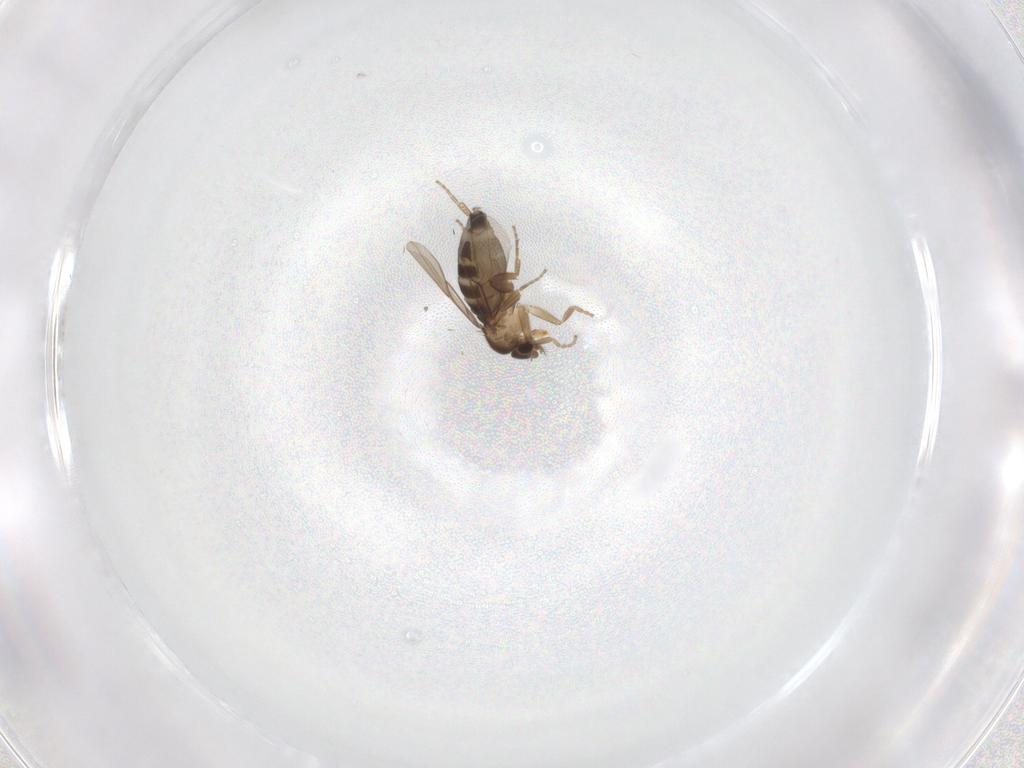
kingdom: Animalia
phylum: Arthropoda
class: Insecta
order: Diptera
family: Phoridae
